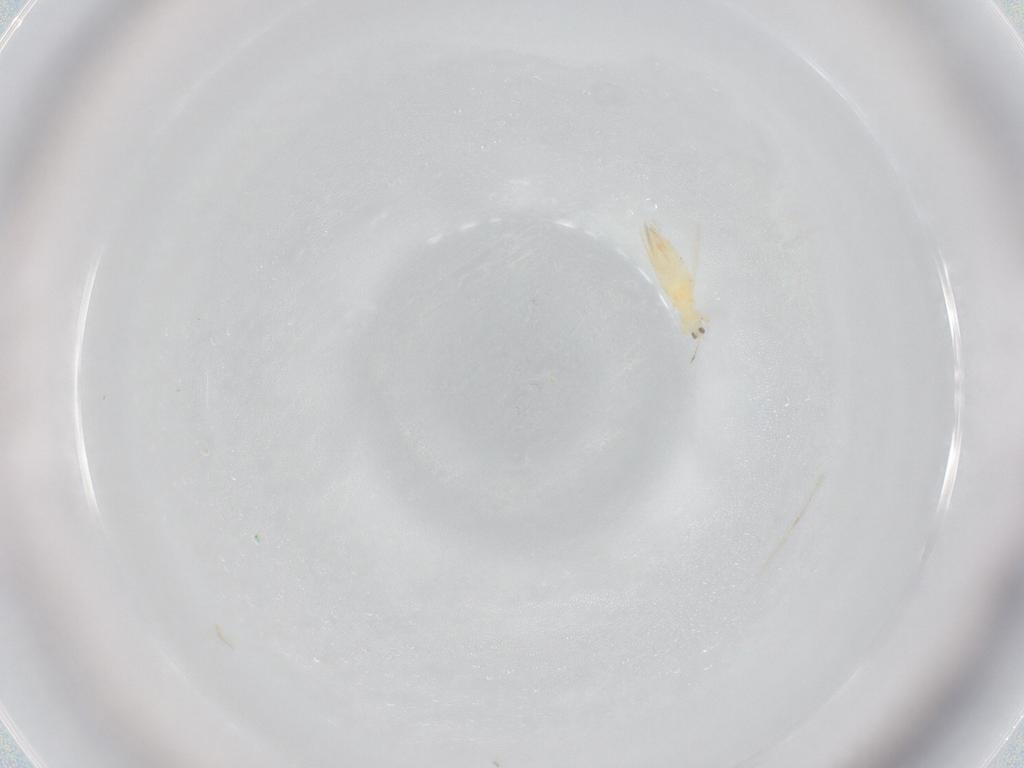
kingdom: Animalia
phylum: Arthropoda
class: Insecta
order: Thysanoptera
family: Thripidae
